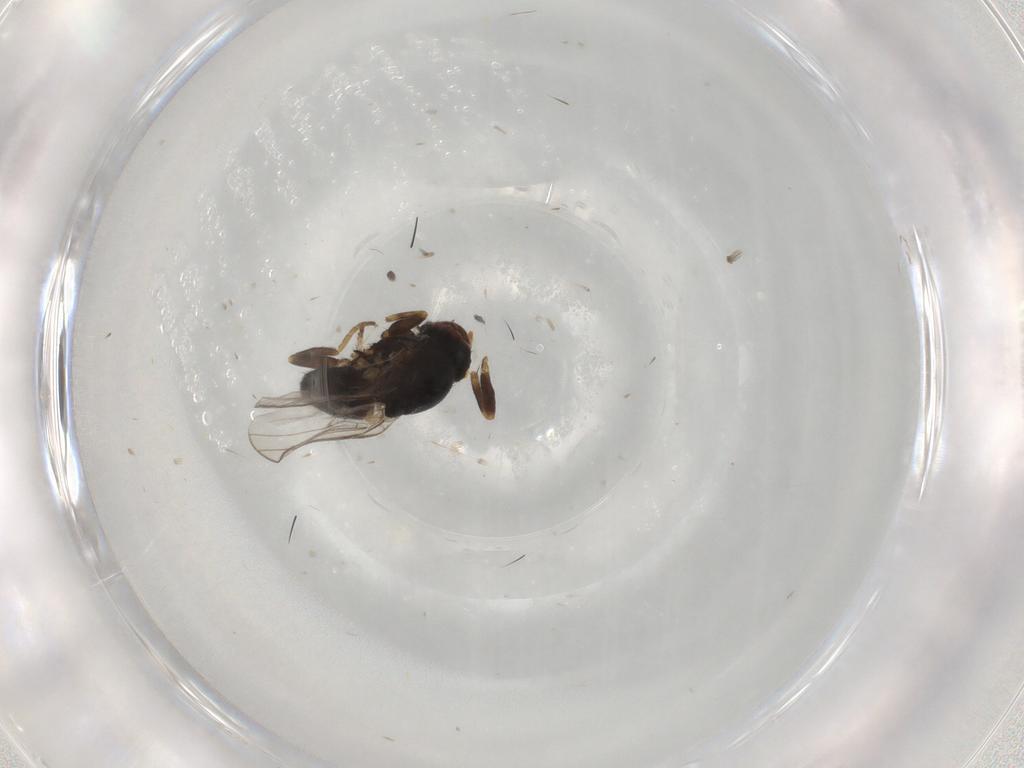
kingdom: Animalia
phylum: Arthropoda
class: Insecta
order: Diptera
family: Chloropidae
